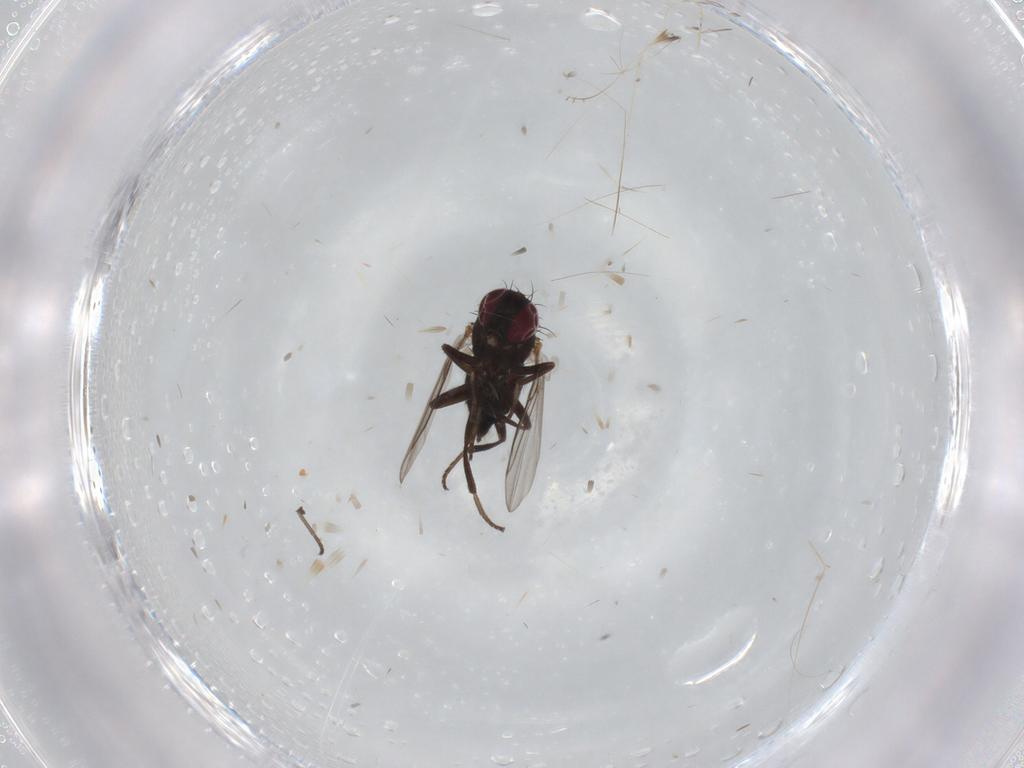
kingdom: Animalia
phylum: Arthropoda
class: Insecta
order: Diptera
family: Agromyzidae
